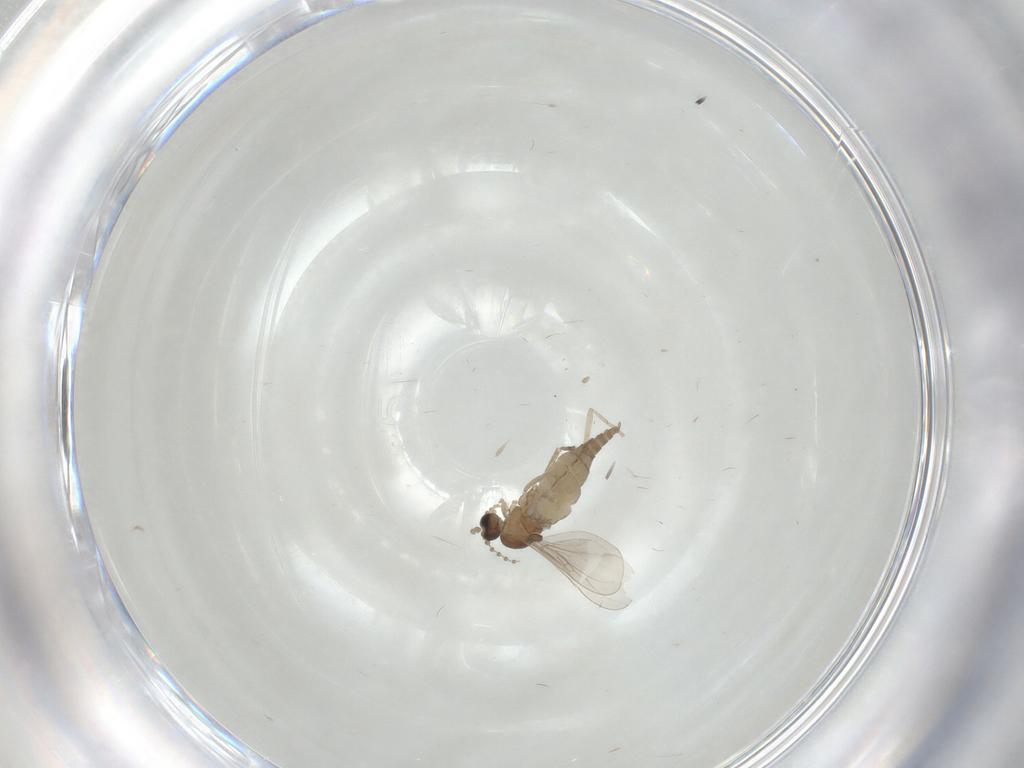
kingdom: Animalia
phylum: Arthropoda
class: Insecta
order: Diptera
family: Cecidomyiidae
